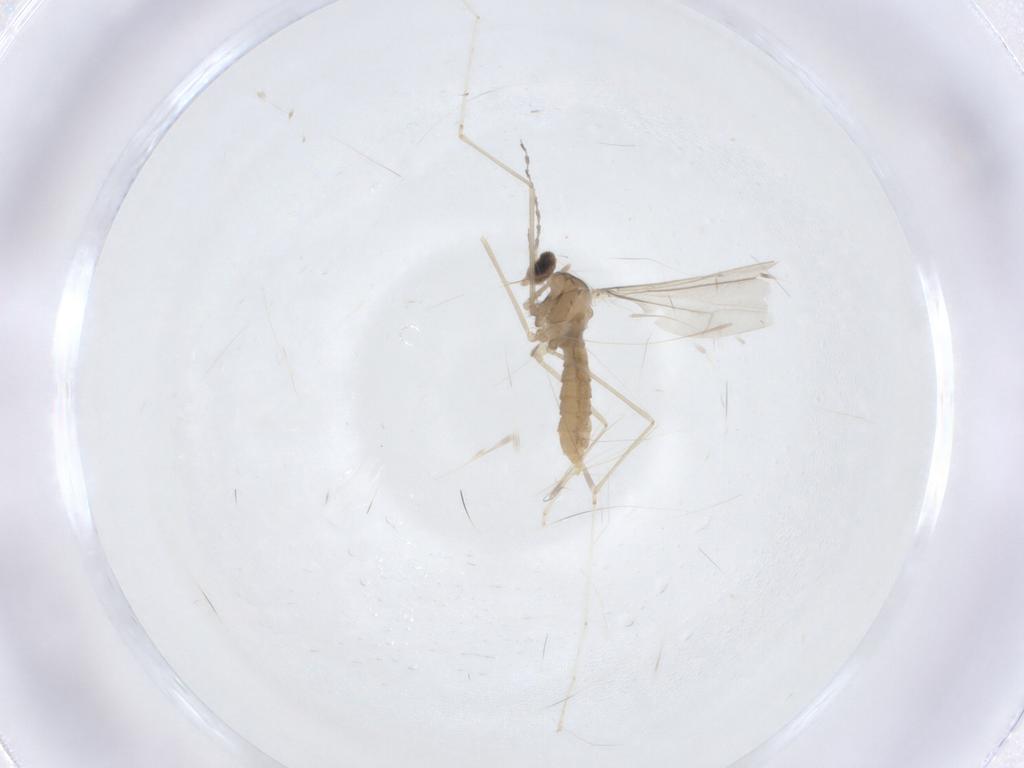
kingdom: Animalia
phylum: Arthropoda
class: Insecta
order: Diptera
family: Cecidomyiidae
